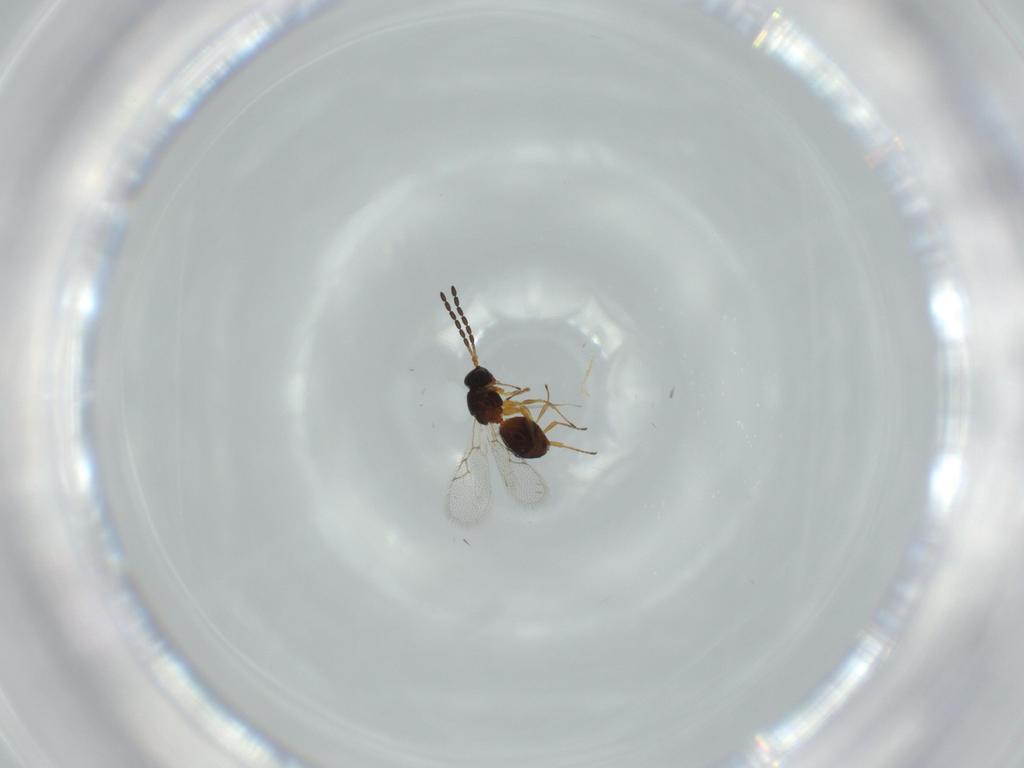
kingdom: Animalia
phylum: Arthropoda
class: Insecta
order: Hymenoptera
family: Figitidae
